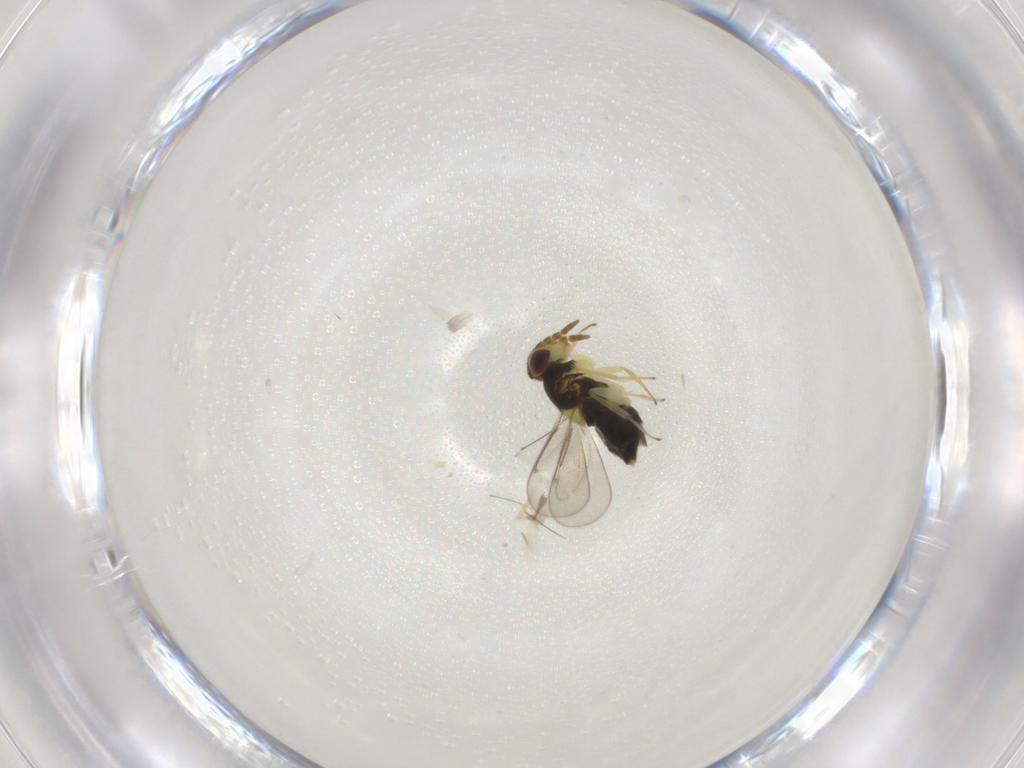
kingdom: Animalia
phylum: Arthropoda
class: Insecta
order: Hymenoptera
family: Aphelinidae
